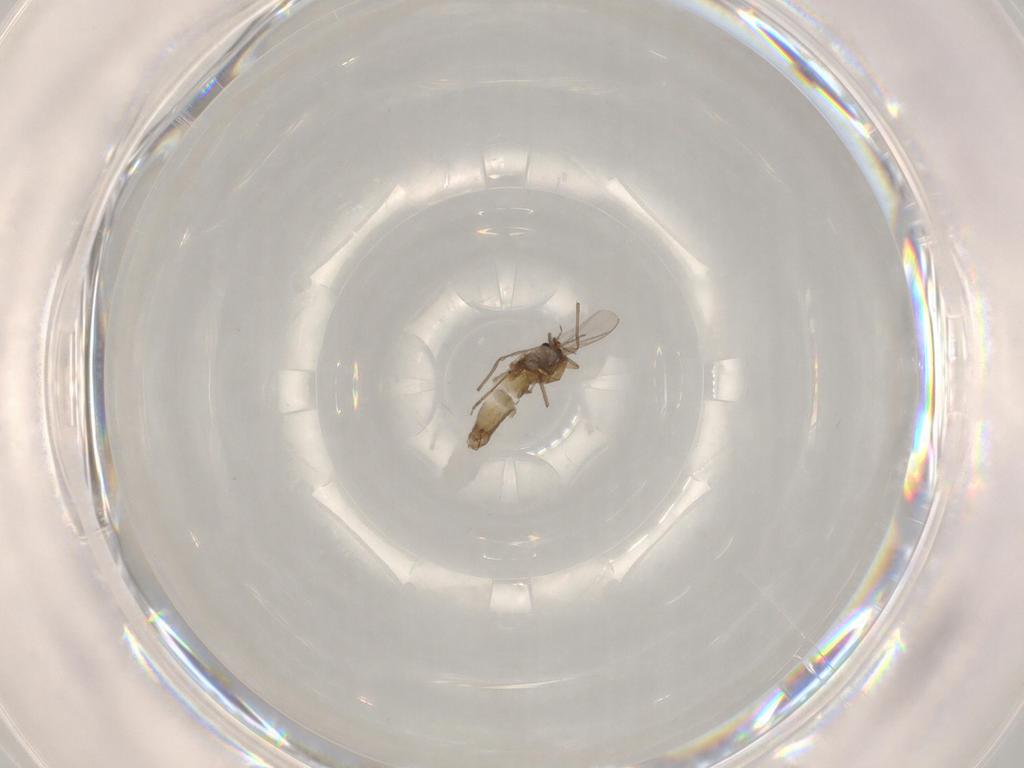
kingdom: Animalia
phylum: Arthropoda
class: Insecta
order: Diptera
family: Chironomidae
